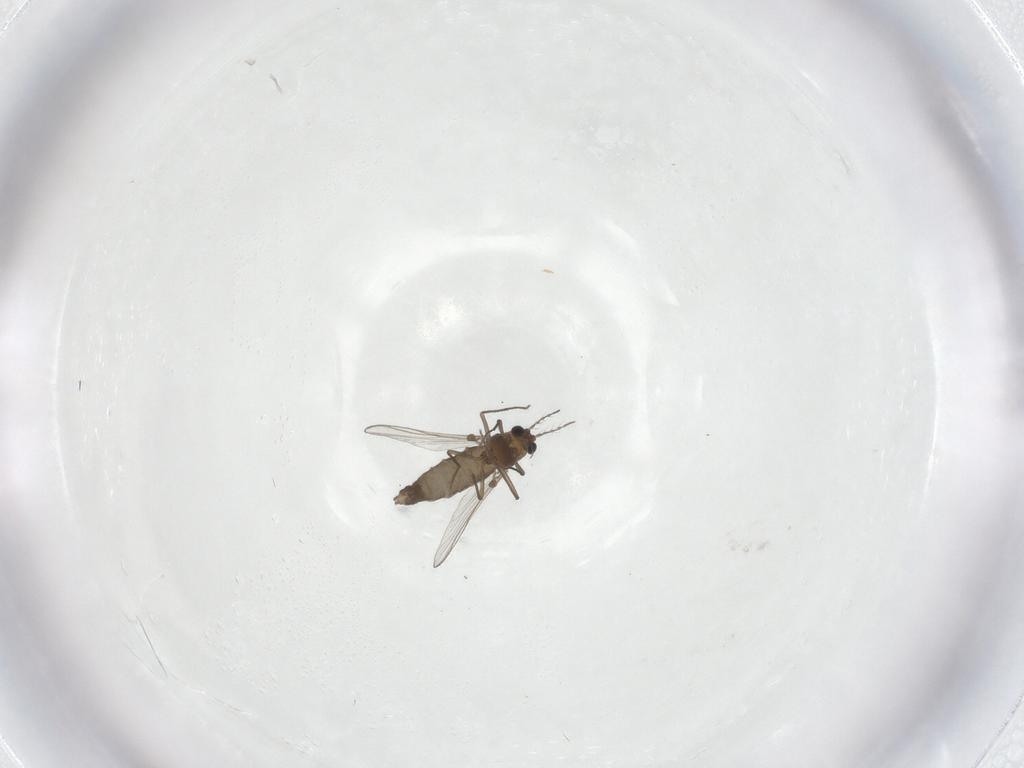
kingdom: Animalia
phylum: Arthropoda
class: Insecta
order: Diptera
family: Chironomidae
